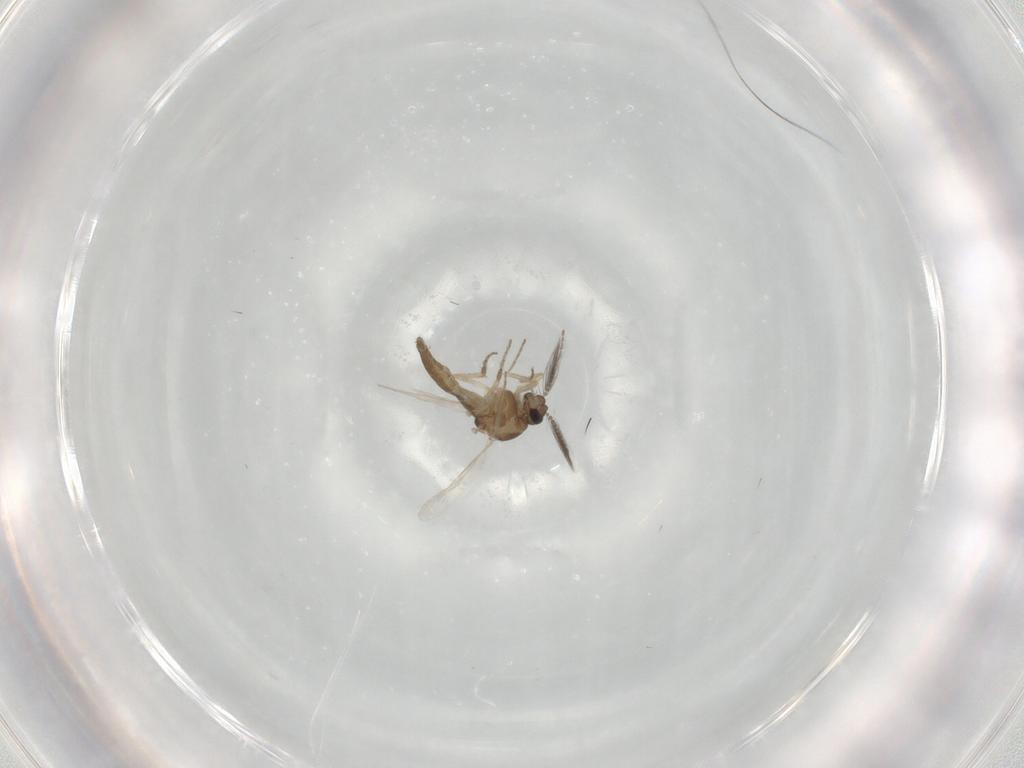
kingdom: Animalia
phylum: Arthropoda
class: Insecta
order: Diptera
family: Ceratopogonidae
